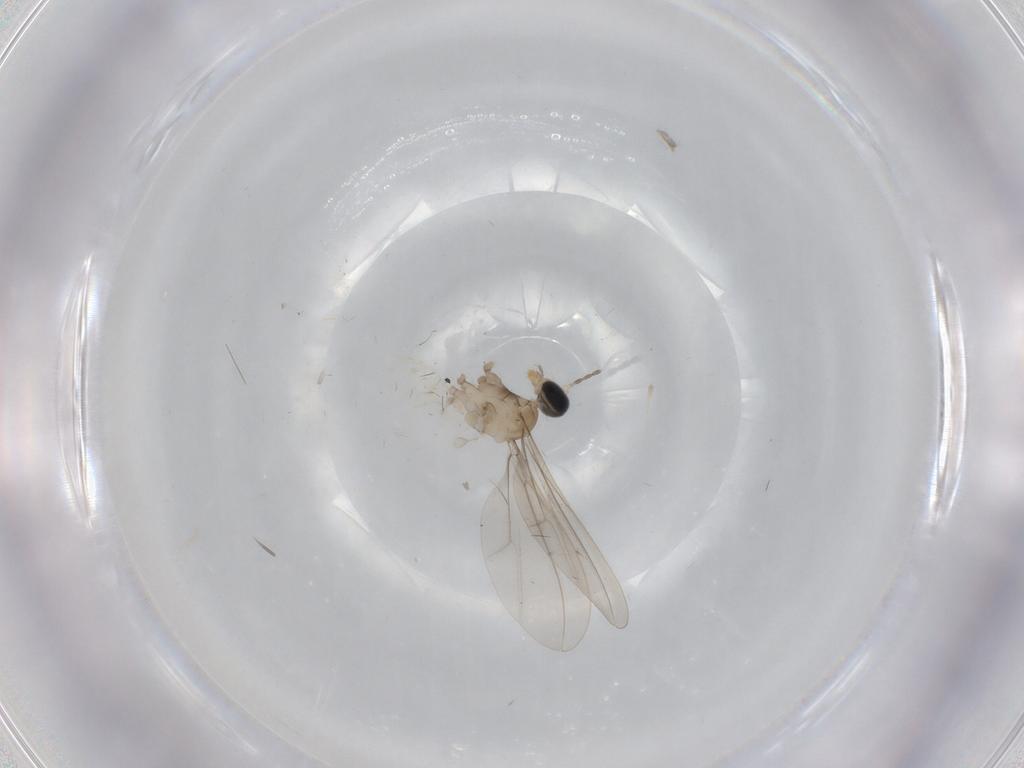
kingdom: Animalia
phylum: Arthropoda
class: Insecta
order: Diptera
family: Cecidomyiidae
